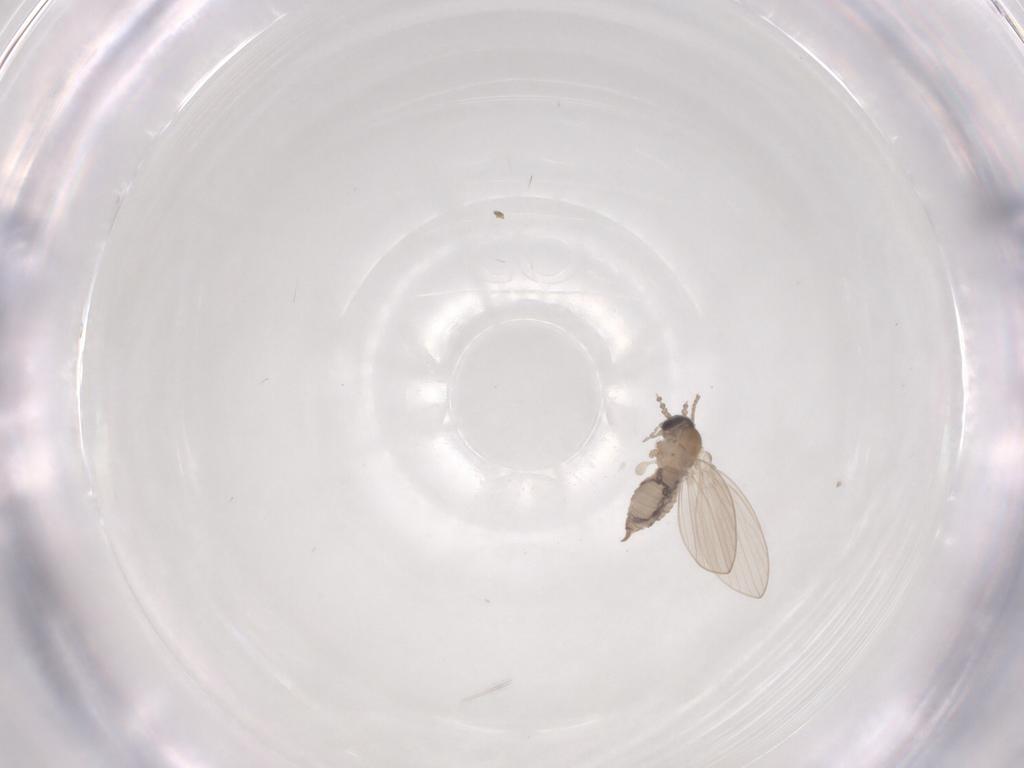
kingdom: Animalia
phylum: Arthropoda
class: Insecta
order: Diptera
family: Psychodidae
